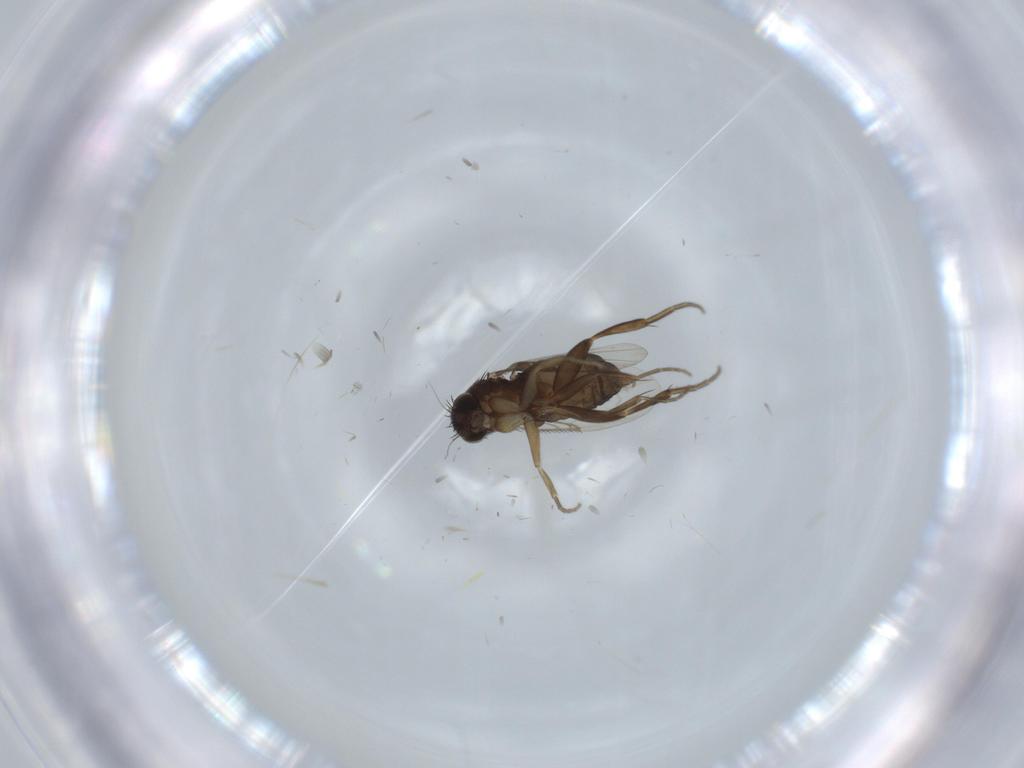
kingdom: Animalia
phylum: Arthropoda
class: Insecta
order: Diptera
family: Phoridae
